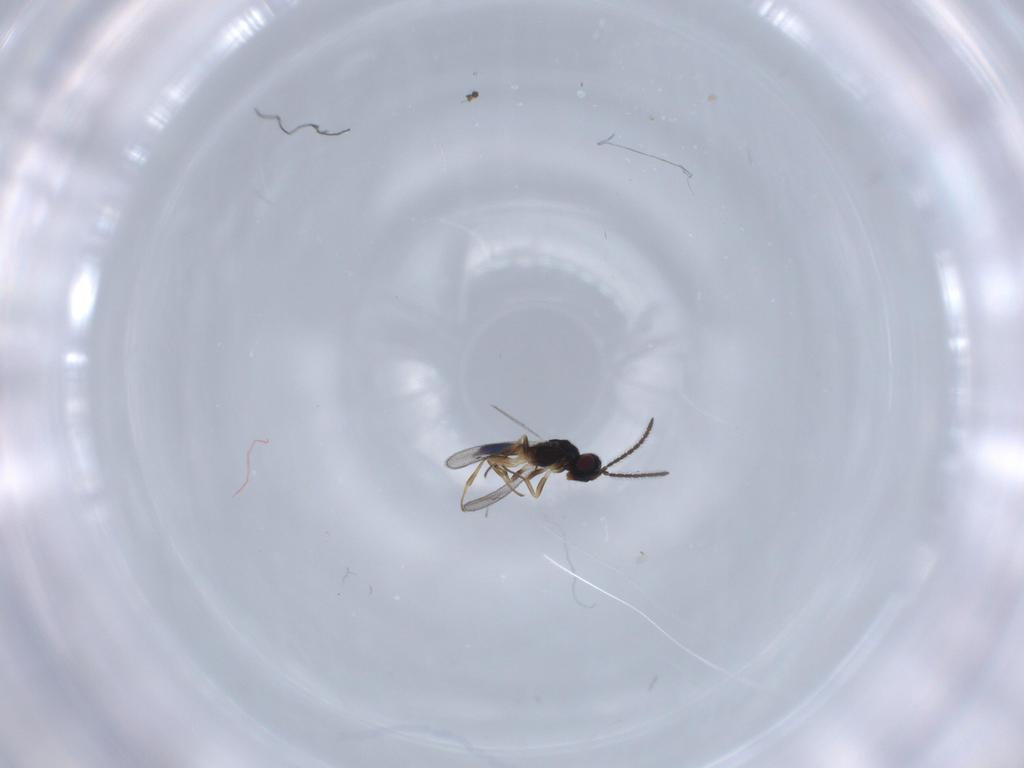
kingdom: Animalia
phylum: Arthropoda
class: Insecta
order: Hymenoptera
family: Eupelmidae
